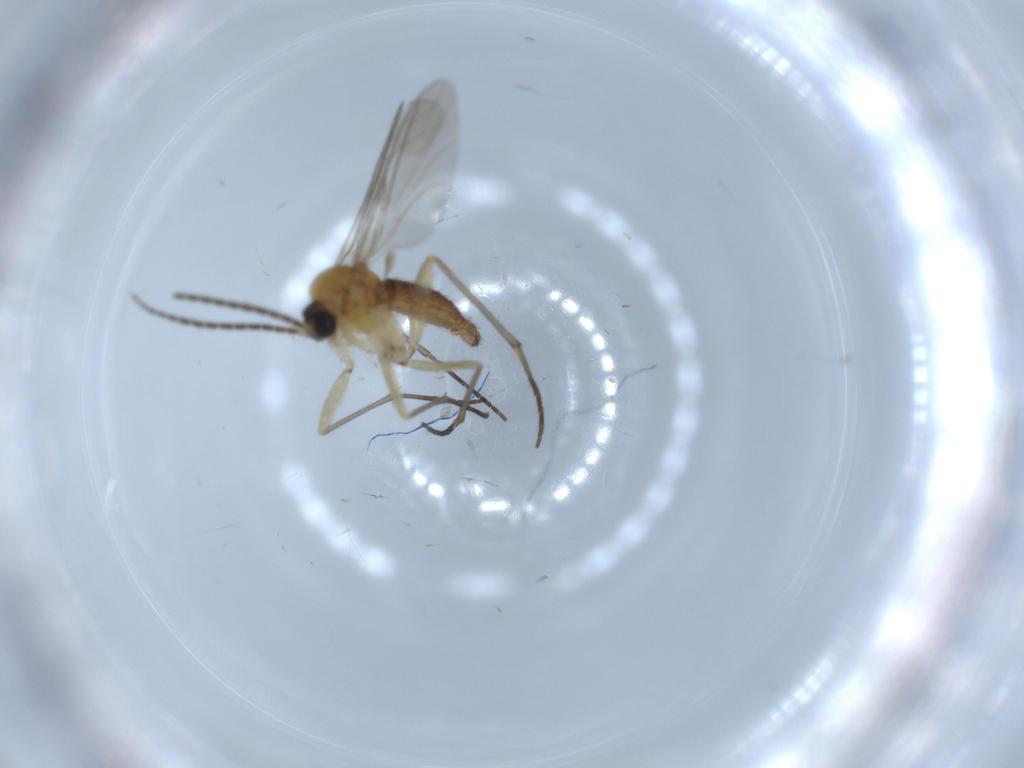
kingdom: Animalia
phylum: Arthropoda
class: Insecta
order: Diptera
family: Sciaridae
